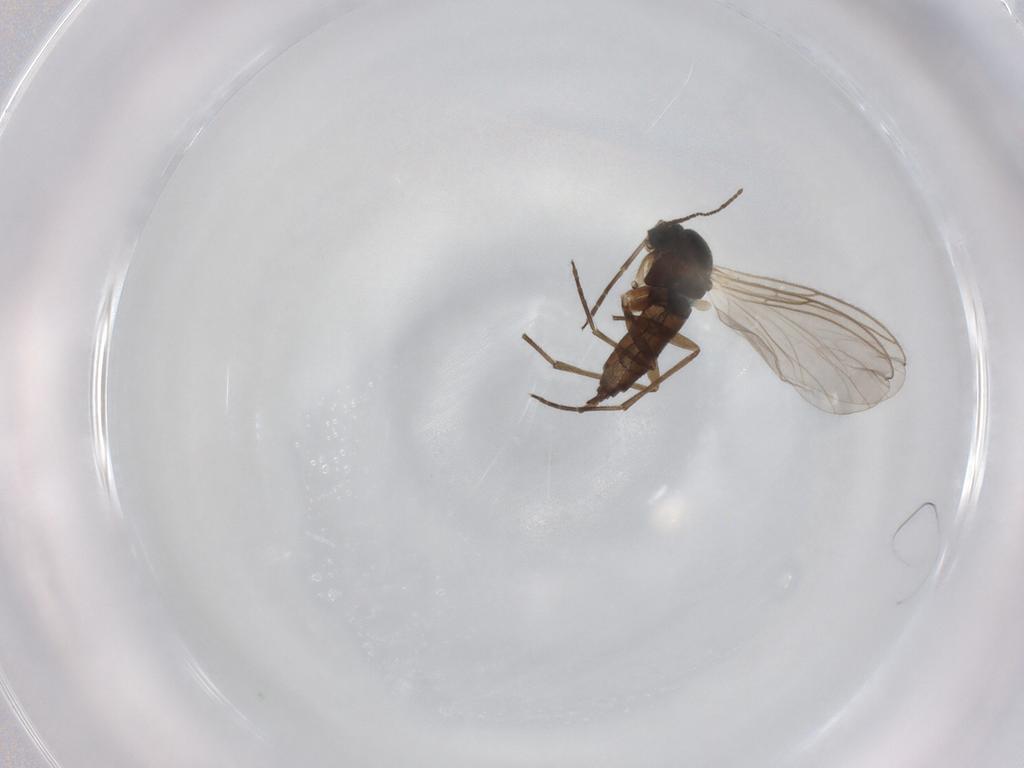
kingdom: Animalia
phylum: Arthropoda
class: Insecta
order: Diptera
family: Sciaridae
